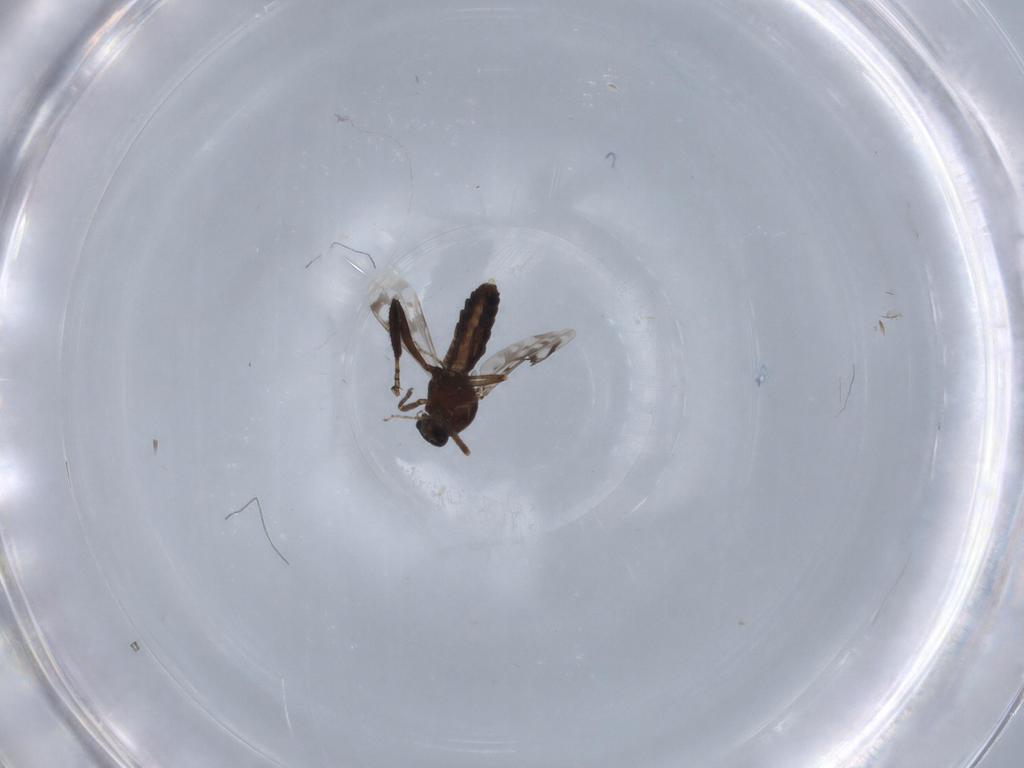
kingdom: Animalia
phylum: Arthropoda
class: Insecta
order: Diptera
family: Ceratopogonidae
